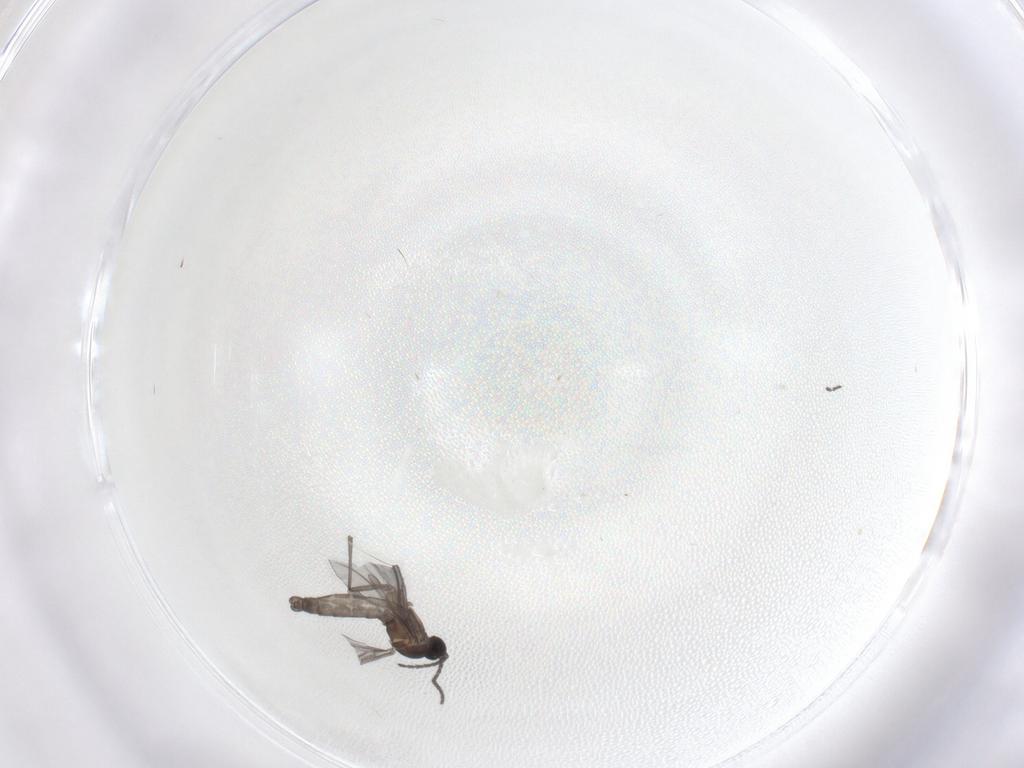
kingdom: Animalia
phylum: Arthropoda
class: Insecta
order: Diptera
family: Sciaridae
